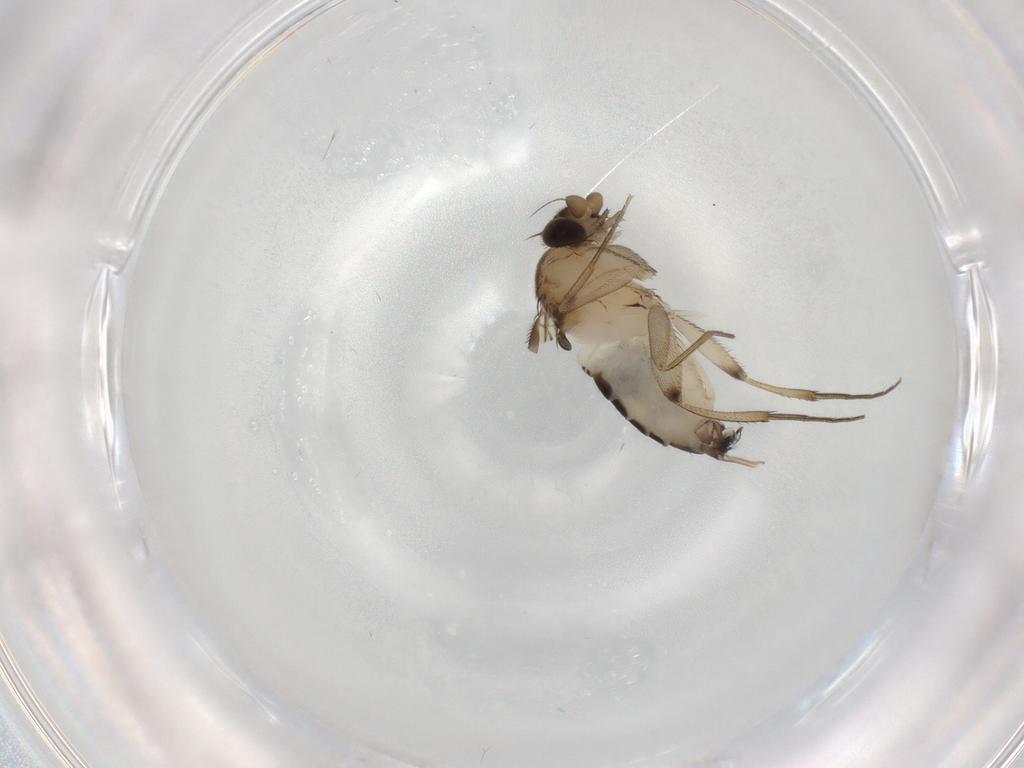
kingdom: Animalia
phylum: Arthropoda
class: Insecta
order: Diptera
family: Phoridae
